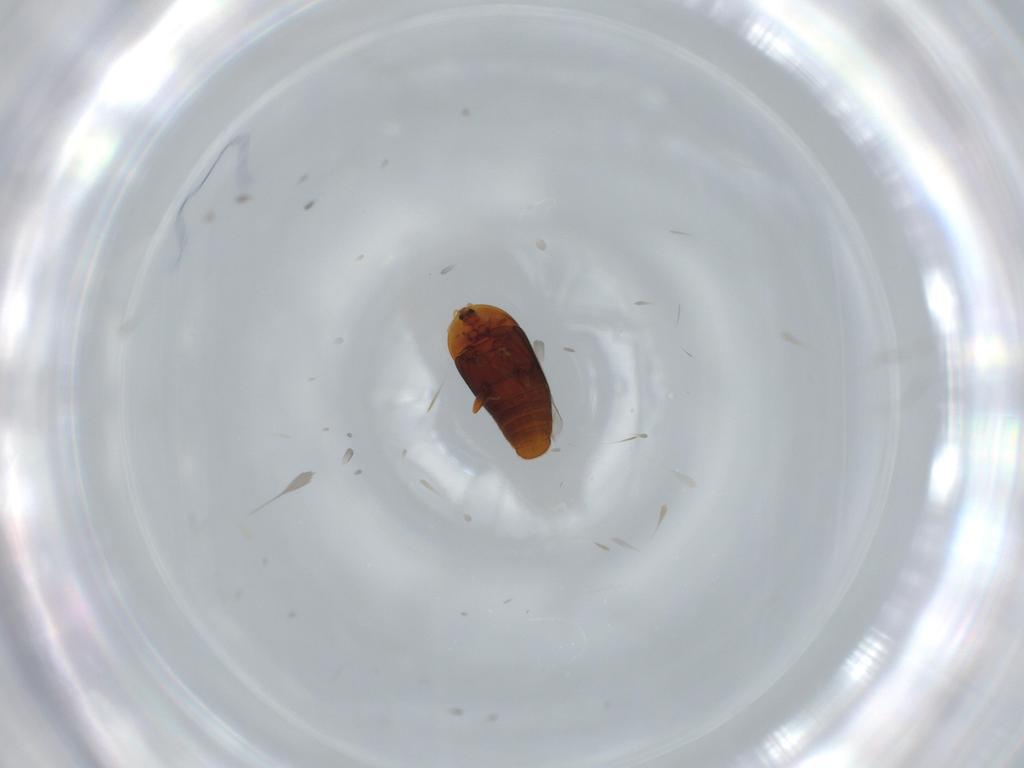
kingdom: Animalia
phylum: Arthropoda
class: Insecta
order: Coleoptera
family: Corylophidae
